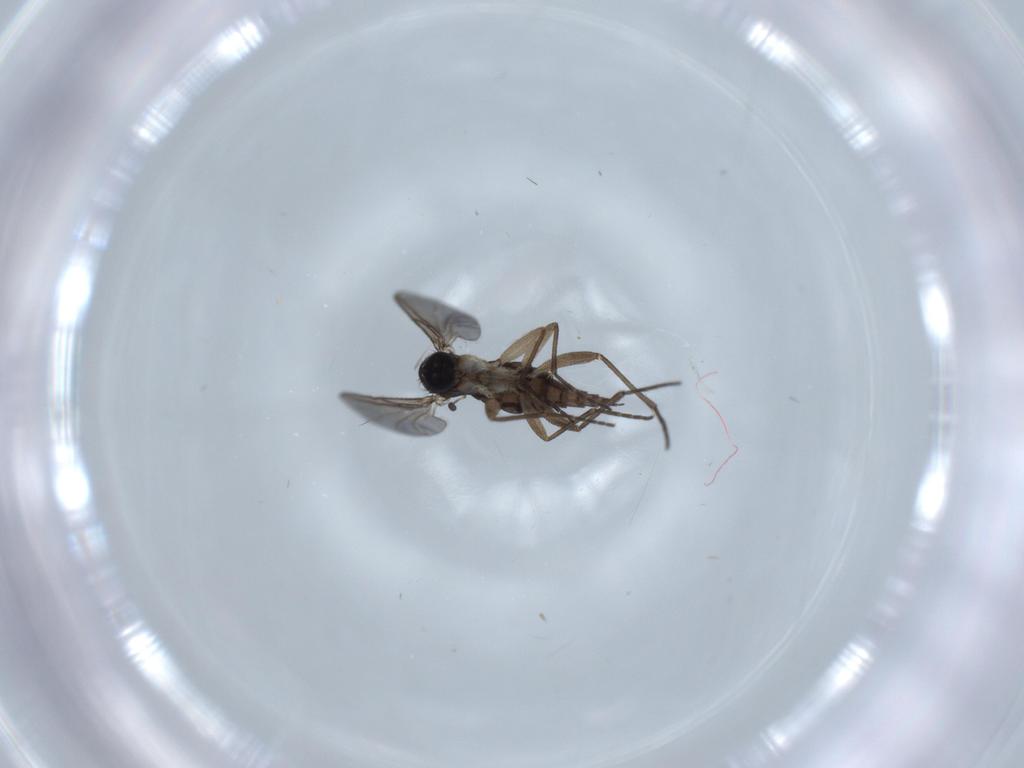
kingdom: Animalia
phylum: Arthropoda
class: Insecta
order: Diptera
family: Sciaridae
